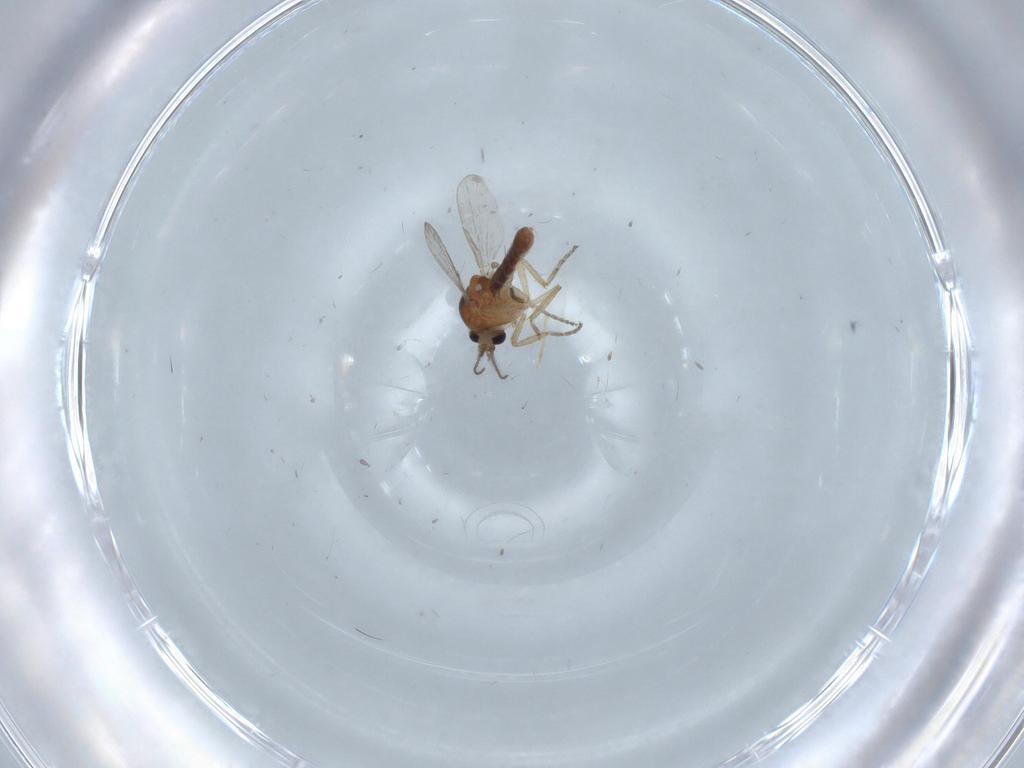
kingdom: Animalia
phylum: Arthropoda
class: Insecta
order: Diptera
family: Ceratopogonidae
